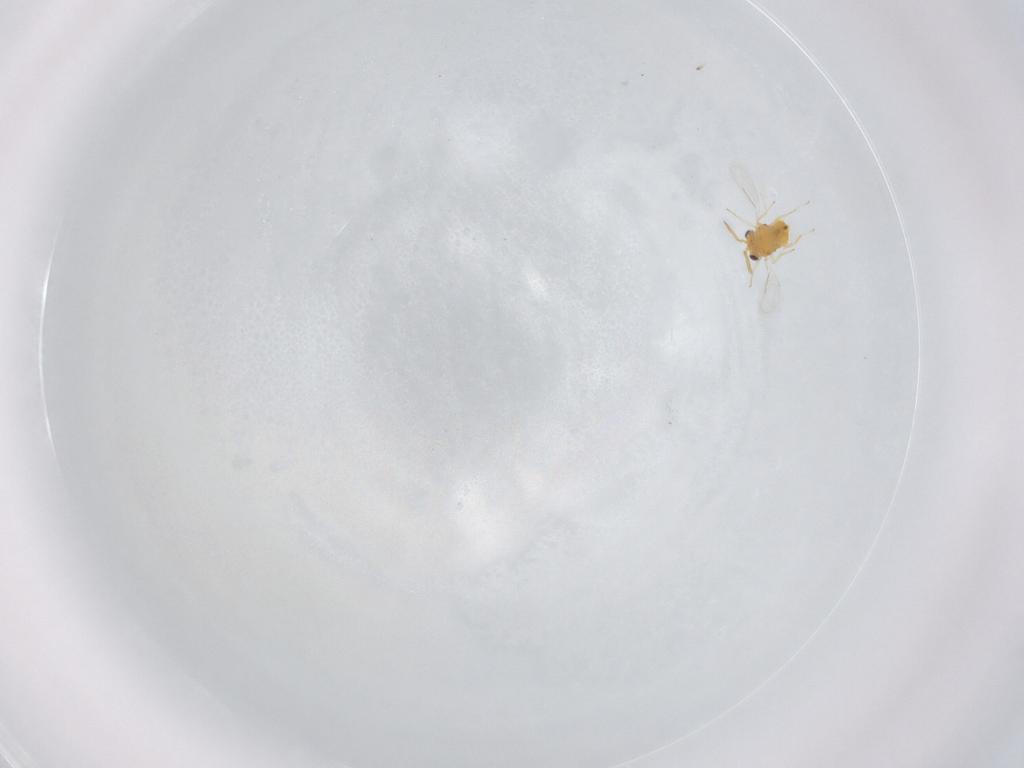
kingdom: Animalia
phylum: Arthropoda
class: Insecta
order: Hymenoptera
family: Aphelinidae
